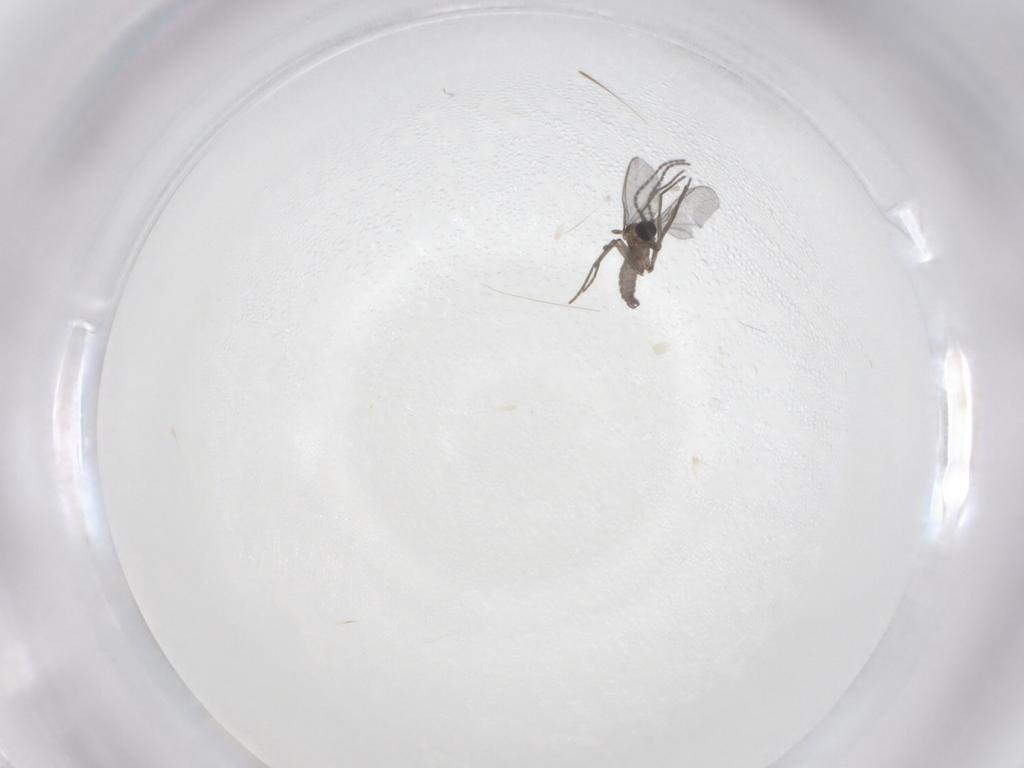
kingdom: Animalia
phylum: Arthropoda
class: Insecta
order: Diptera
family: Sciaridae
